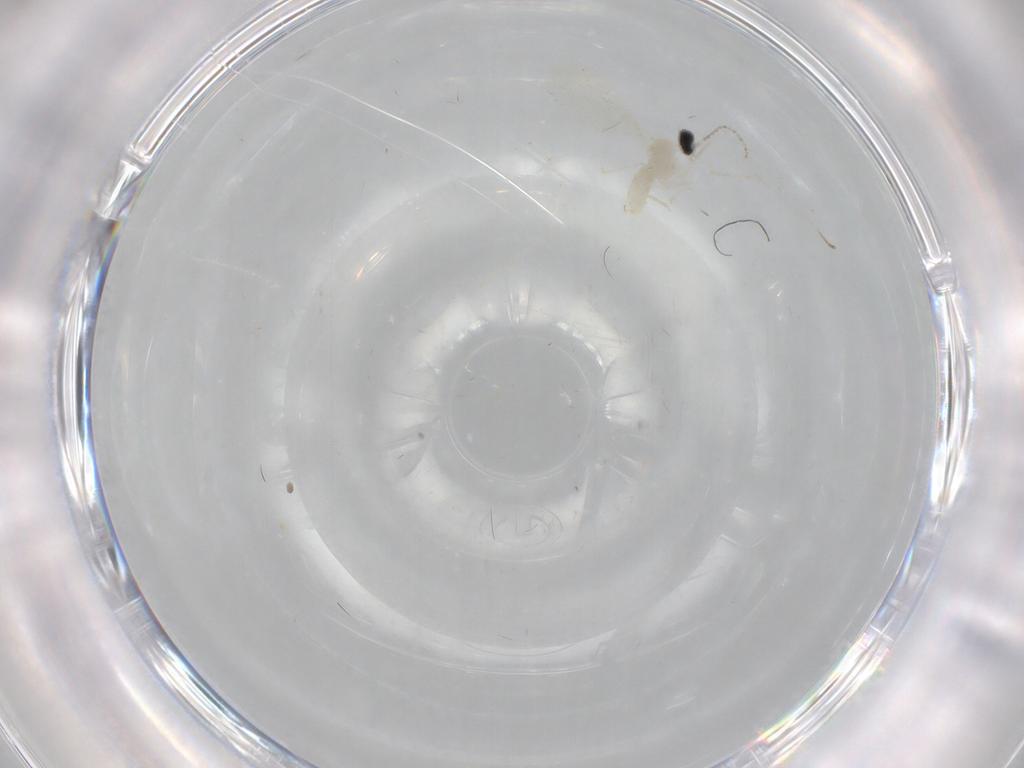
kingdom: Animalia
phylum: Arthropoda
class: Insecta
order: Diptera
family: Cecidomyiidae
